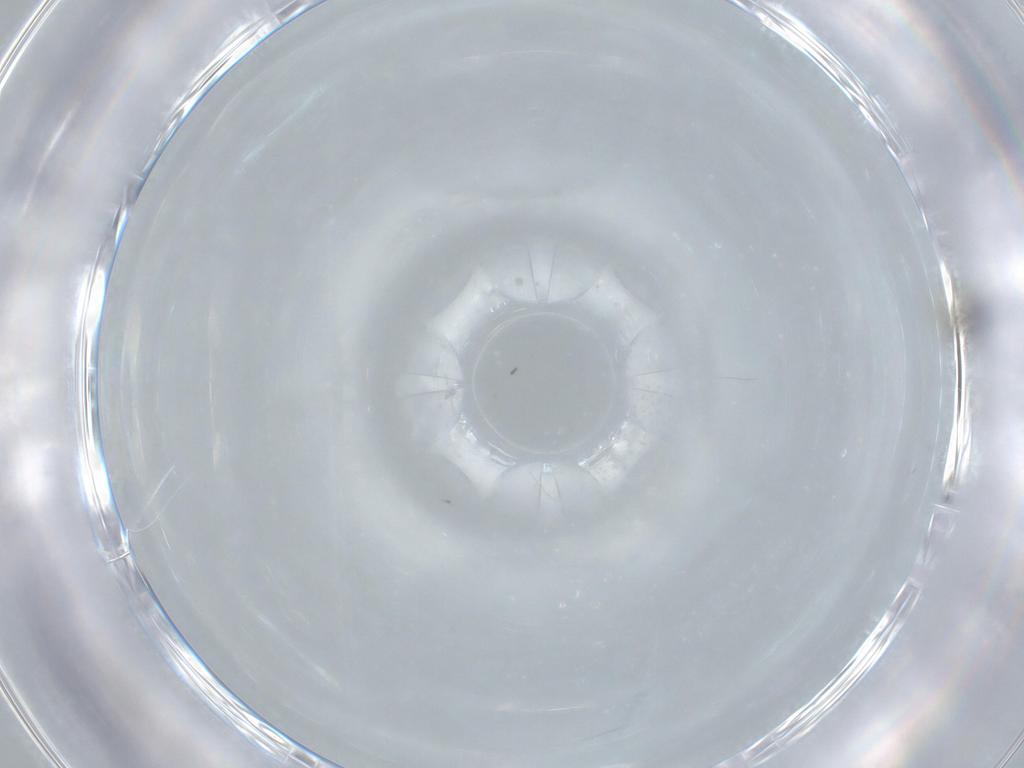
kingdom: Animalia
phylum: Arthropoda
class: Insecta
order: Hymenoptera
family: Scelionidae
